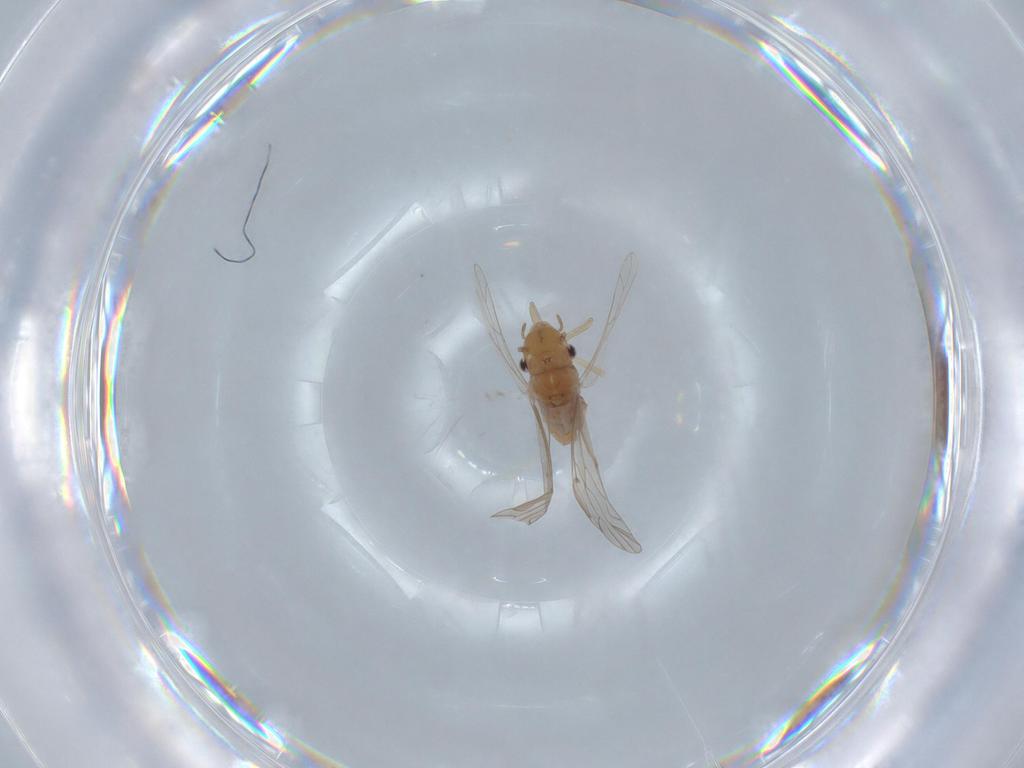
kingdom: Animalia
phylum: Arthropoda
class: Insecta
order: Psocodea
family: Lachesillidae
